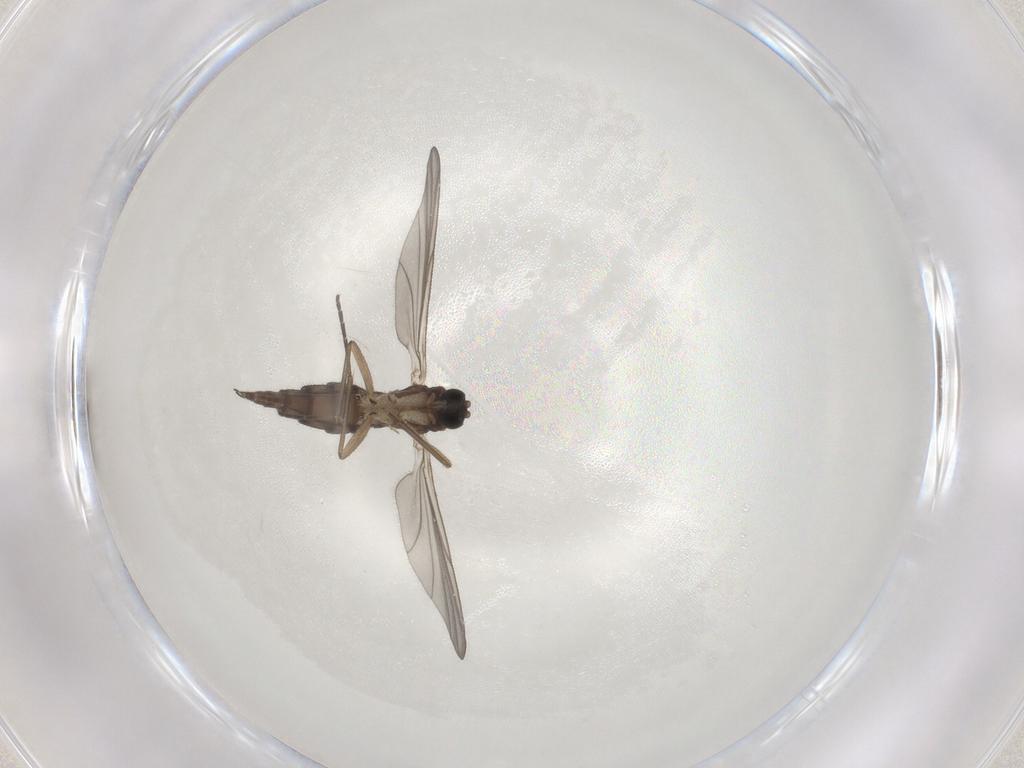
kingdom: Animalia
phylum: Arthropoda
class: Insecta
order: Diptera
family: Sciaridae
